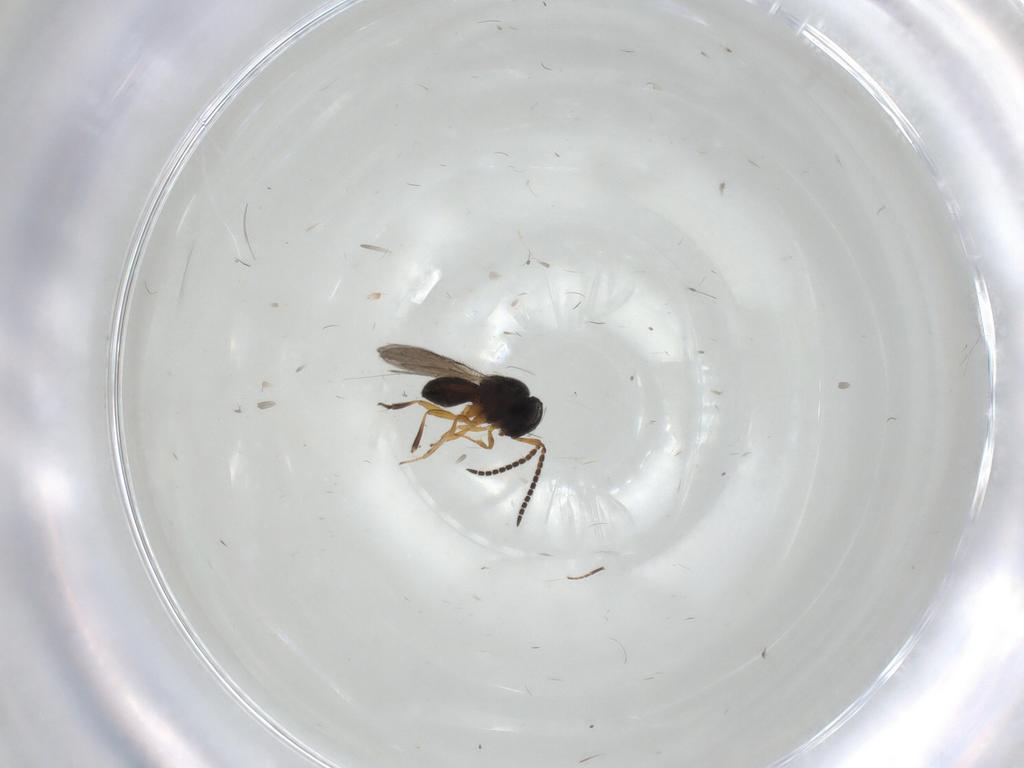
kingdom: Animalia
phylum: Arthropoda
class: Insecta
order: Hymenoptera
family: Scelionidae
